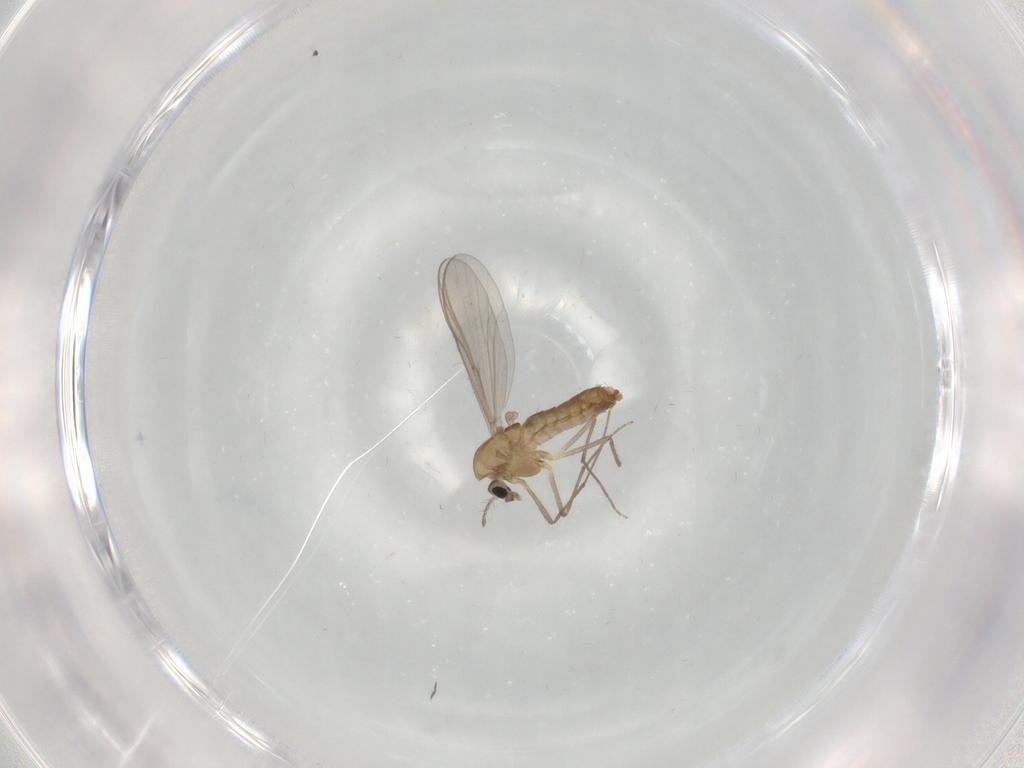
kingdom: Animalia
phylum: Arthropoda
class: Insecta
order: Diptera
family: Chironomidae
